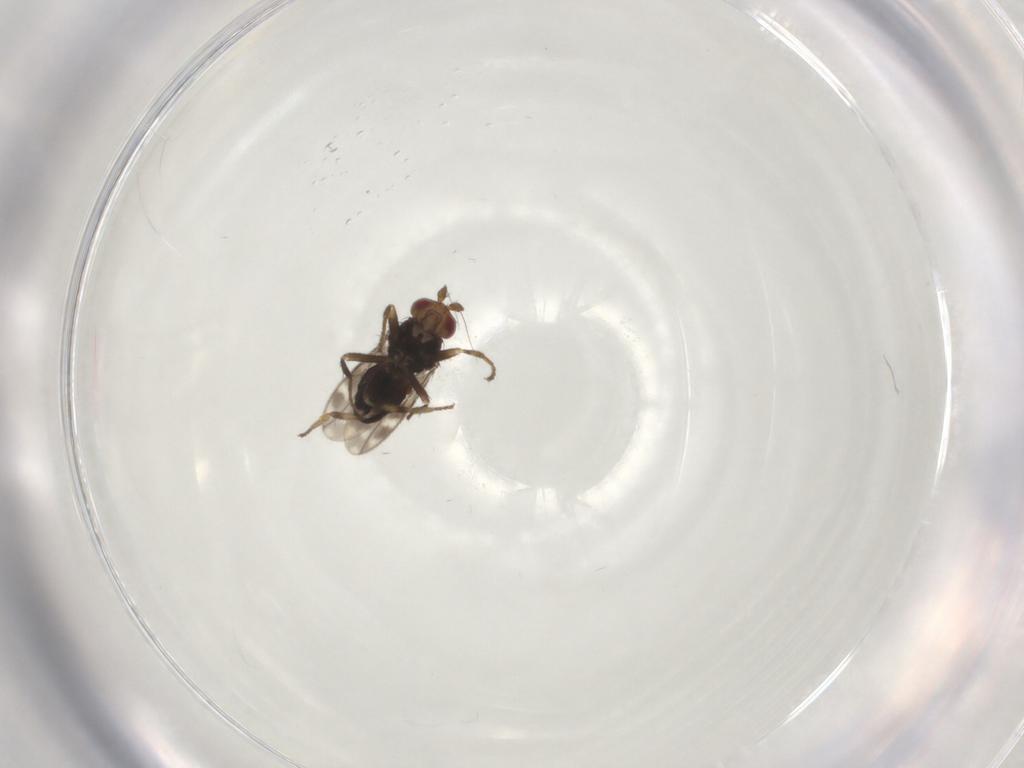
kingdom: Animalia
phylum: Arthropoda
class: Insecta
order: Diptera
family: Sphaeroceridae
